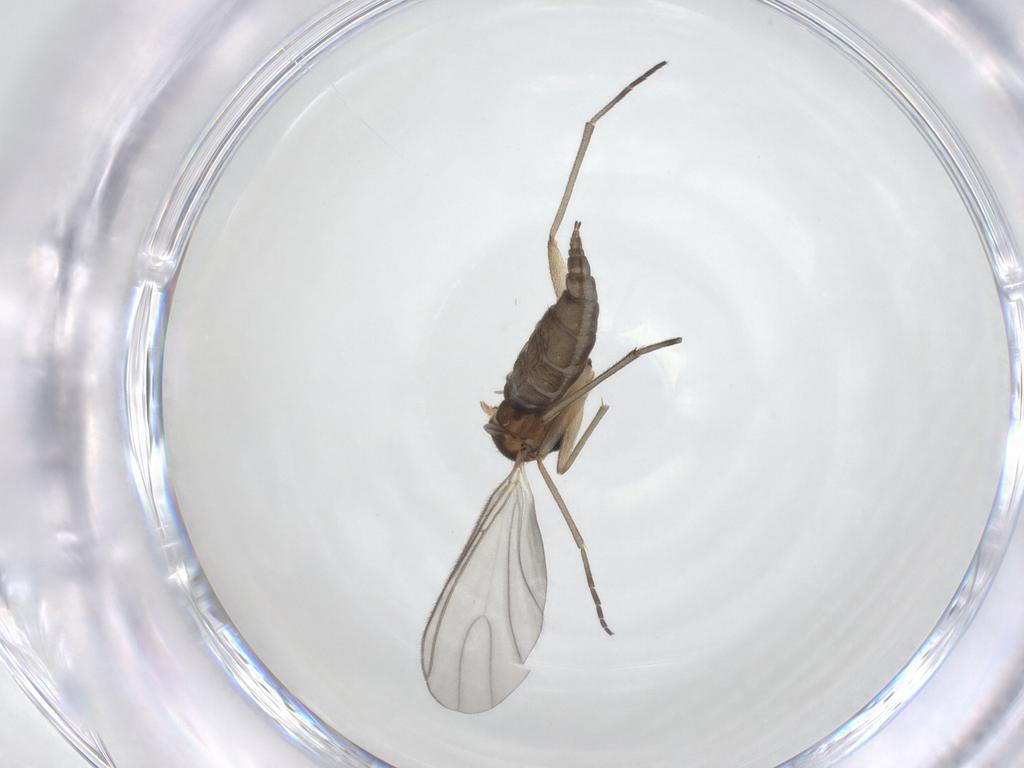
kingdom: Animalia
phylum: Arthropoda
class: Insecta
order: Diptera
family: Sciaridae
